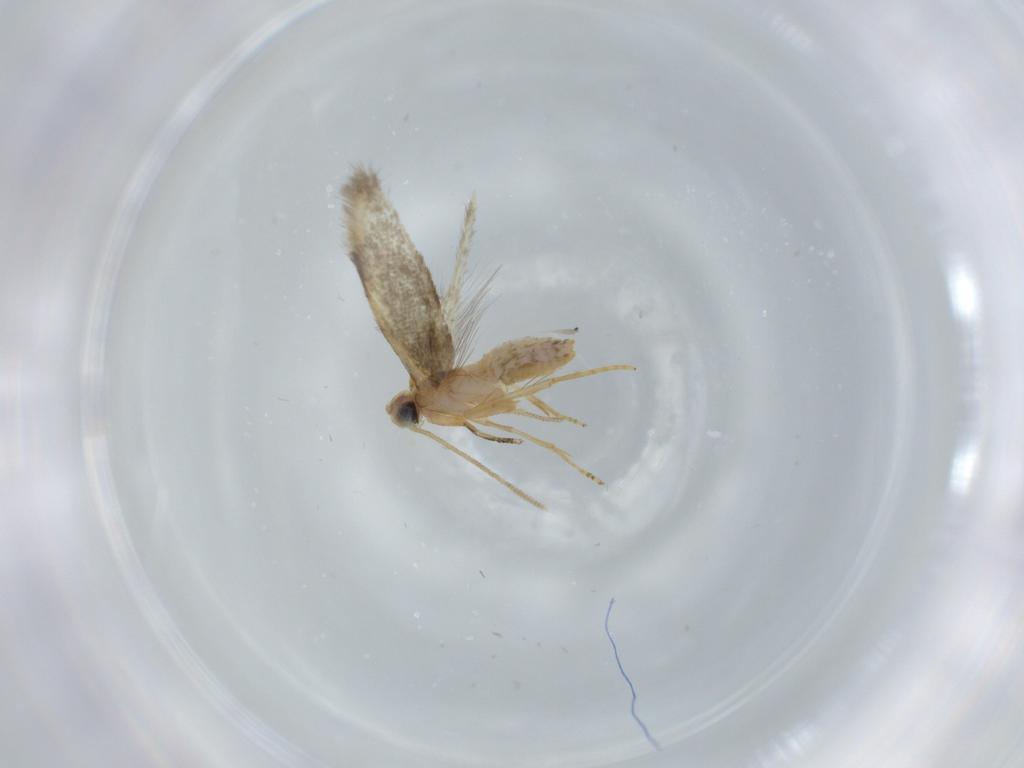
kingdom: Animalia
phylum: Arthropoda
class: Insecta
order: Lepidoptera
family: Nepticulidae
